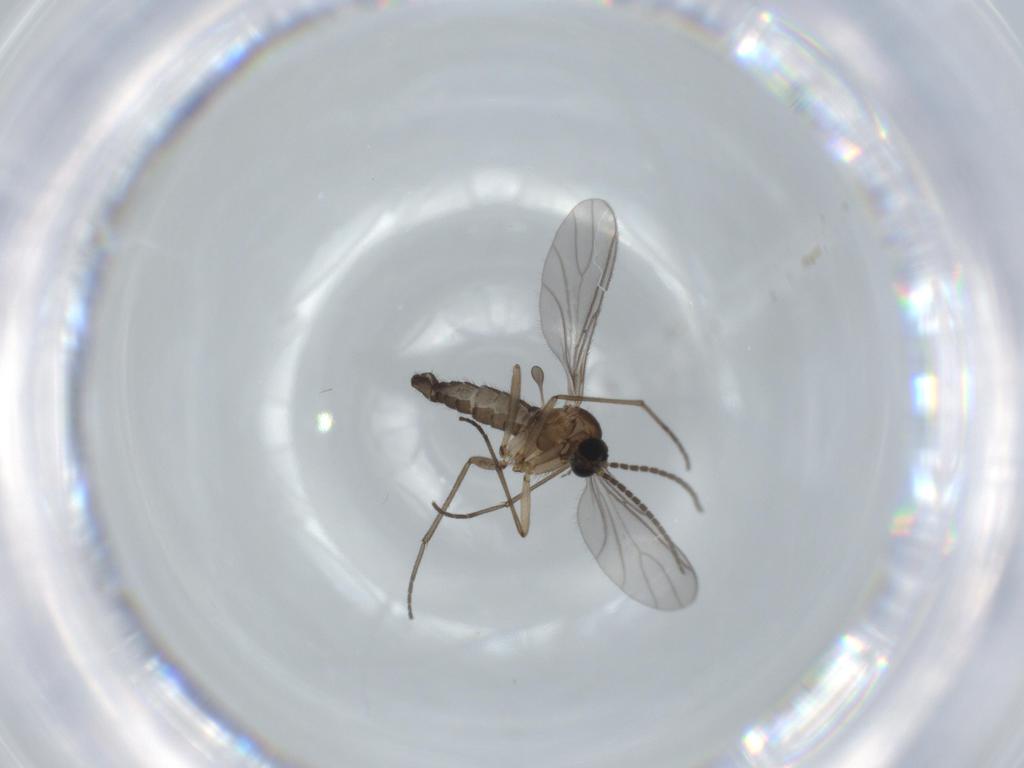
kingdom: Animalia
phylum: Arthropoda
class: Insecta
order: Diptera
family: Sciaridae
